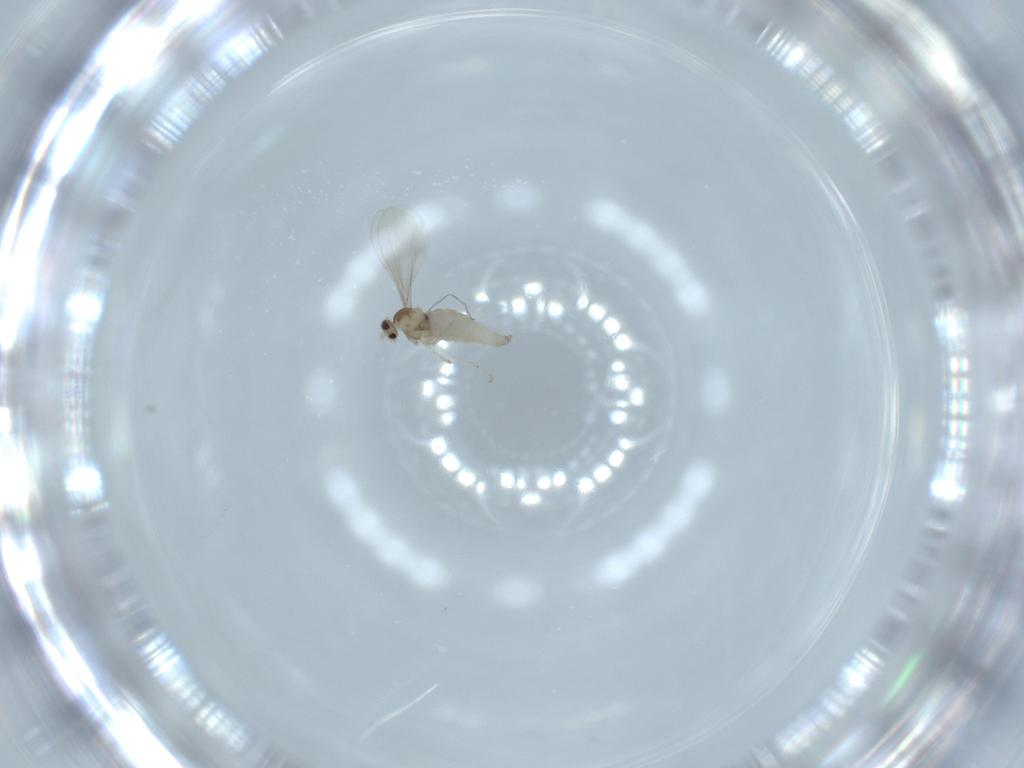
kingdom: Animalia
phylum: Arthropoda
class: Insecta
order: Diptera
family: Cecidomyiidae
